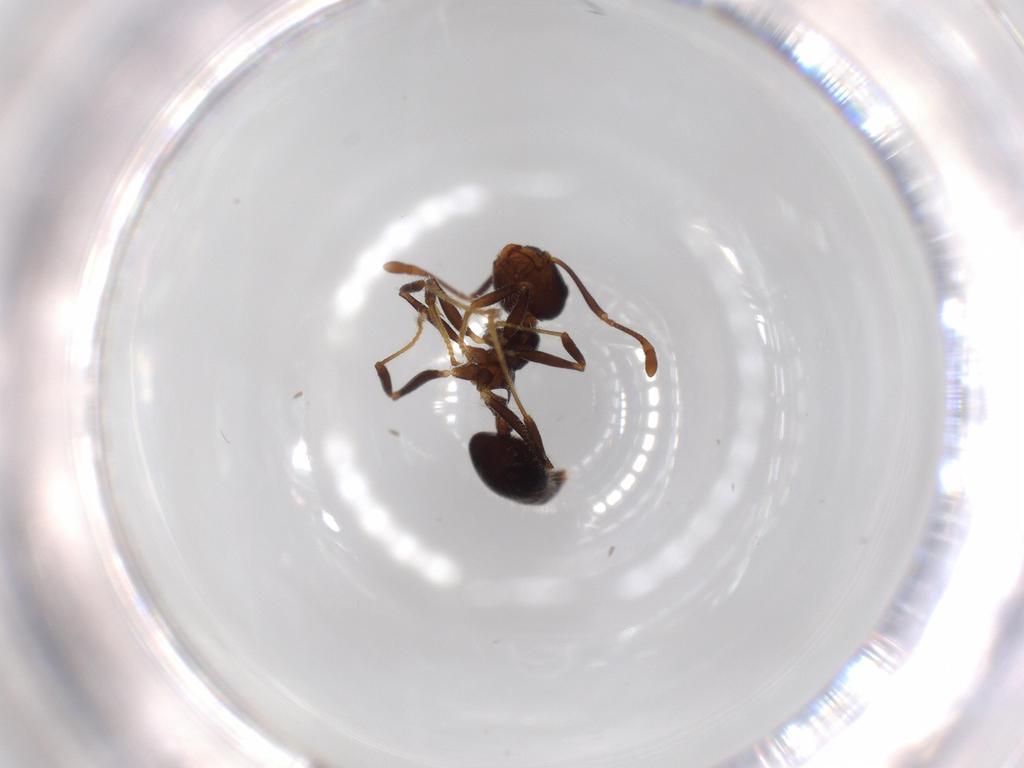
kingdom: Animalia
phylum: Arthropoda
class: Insecta
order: Hymenoptera
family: Formicidae
